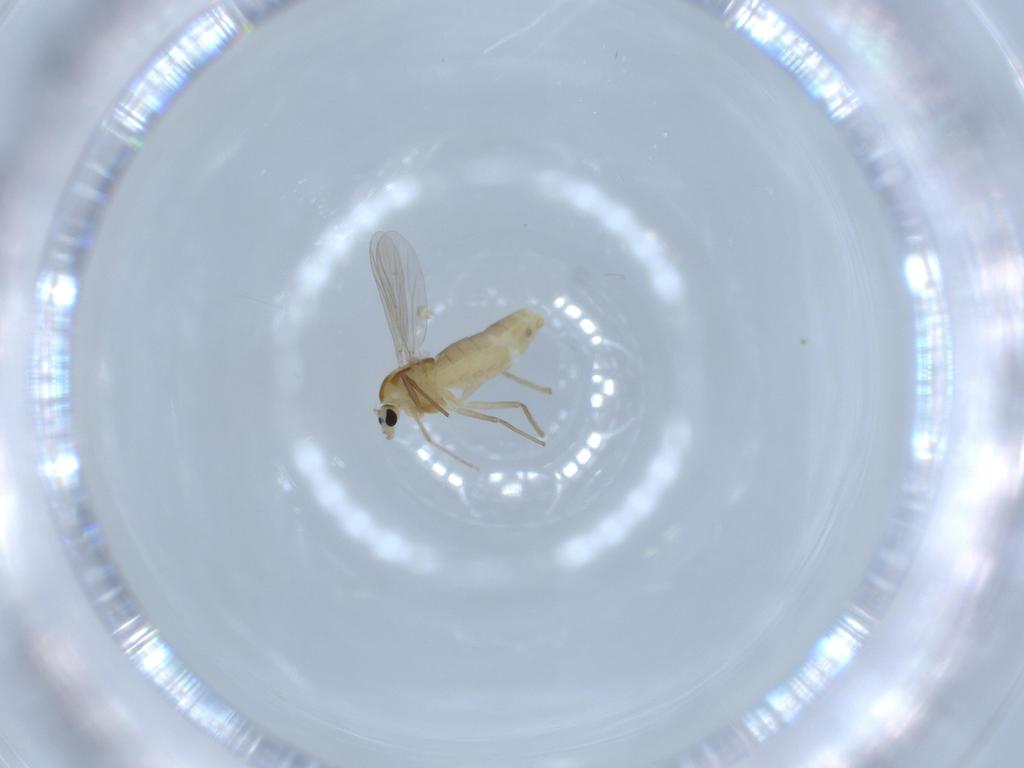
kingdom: Animalia
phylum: Arthropoda
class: Insecta
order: Diptera
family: Chironomidae
